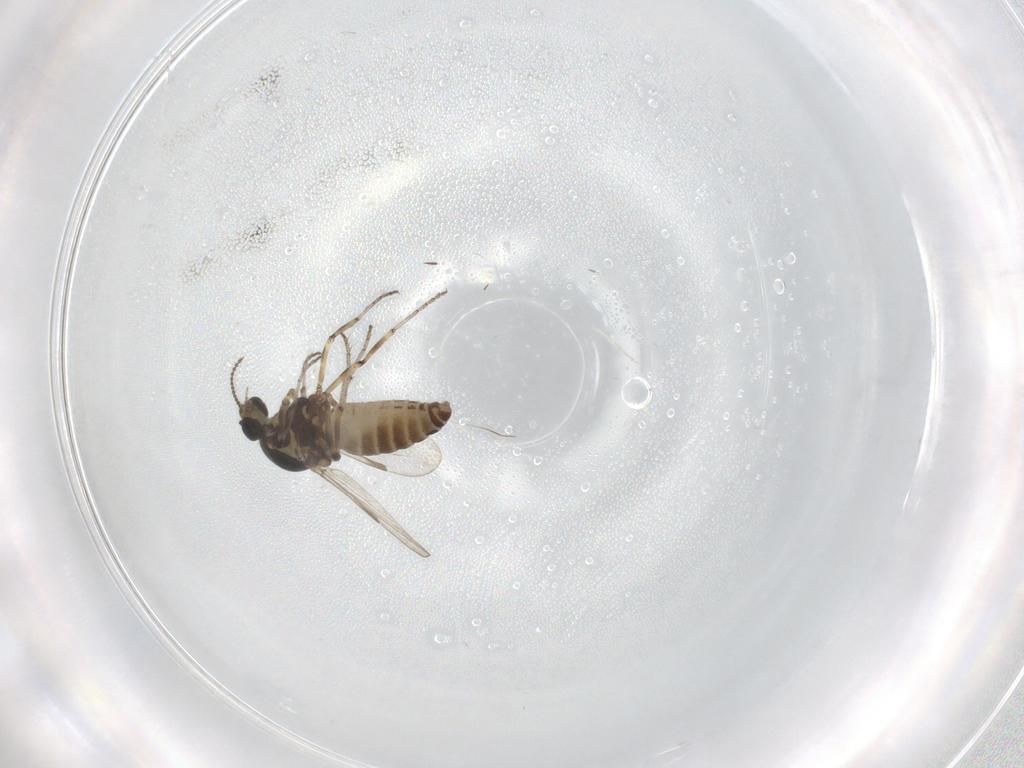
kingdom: Animalia
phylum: Arthropoda
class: Insecta
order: Diptera
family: Ceratopogonidae
